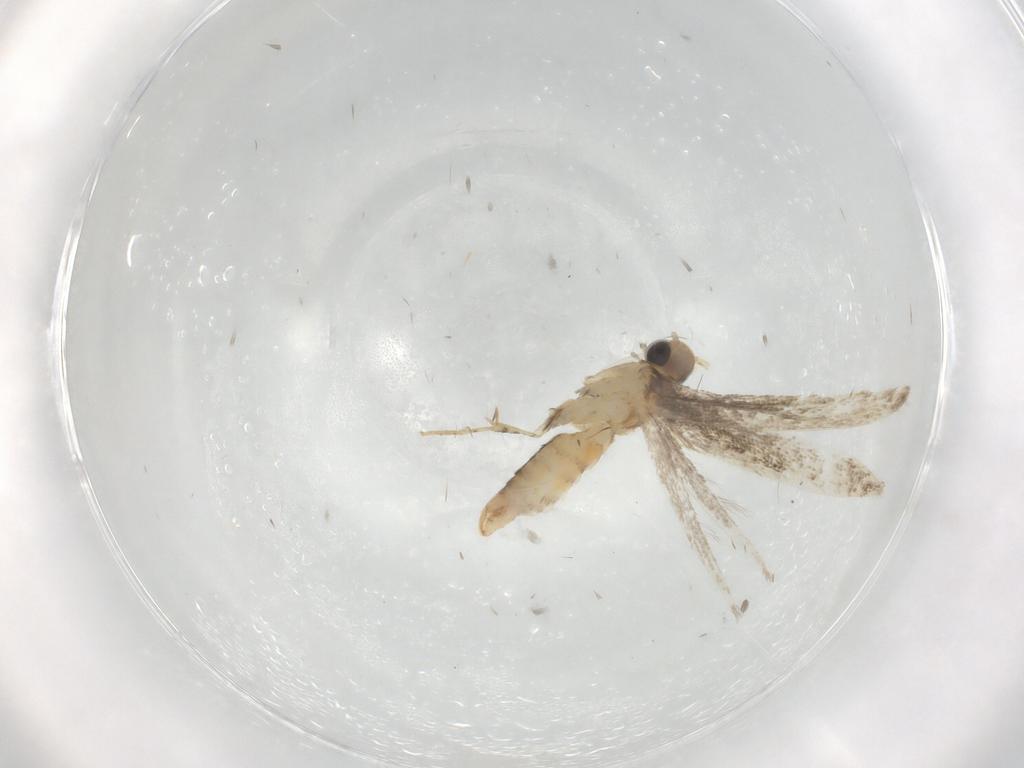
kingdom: Animalia
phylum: Arthropoda
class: Insecta
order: Lepidoptera
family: Oecophoridae
